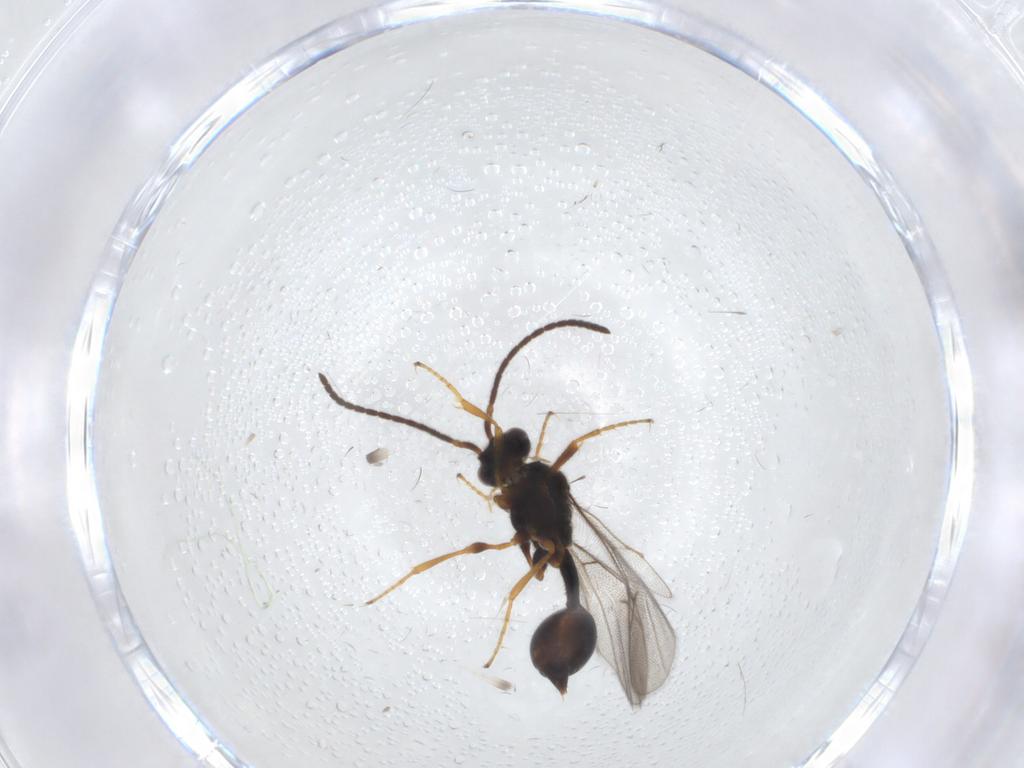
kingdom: Animalia
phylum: Arthropoda
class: Insecta
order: Hymenoptera
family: Diapriidae
